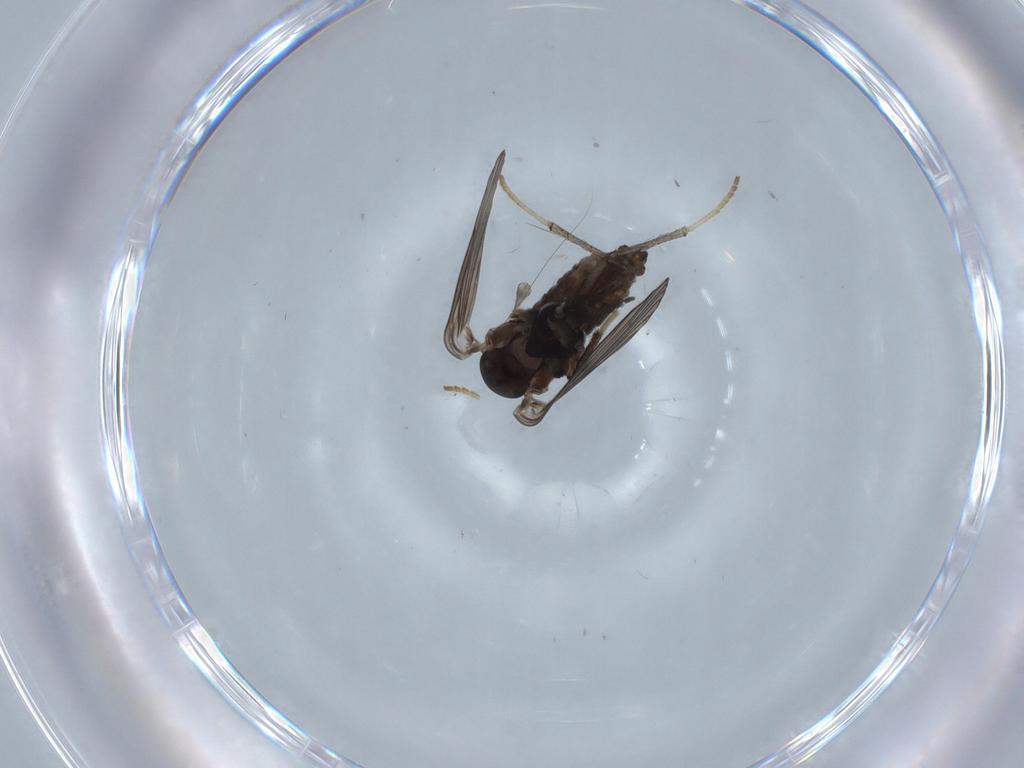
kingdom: Animalia
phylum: Arthropoda
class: Insecta
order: Diptera
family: Psychodidae
